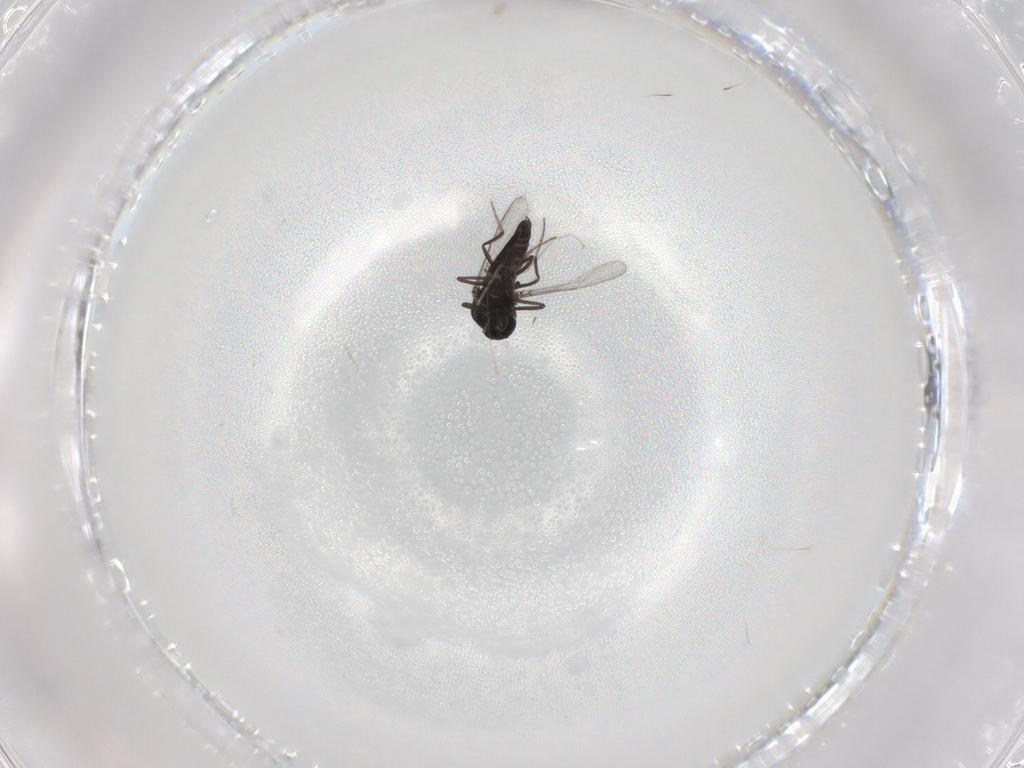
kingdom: Animalia
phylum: Arthropoda
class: Insecta
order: Diptera
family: Ceratopogonidae
